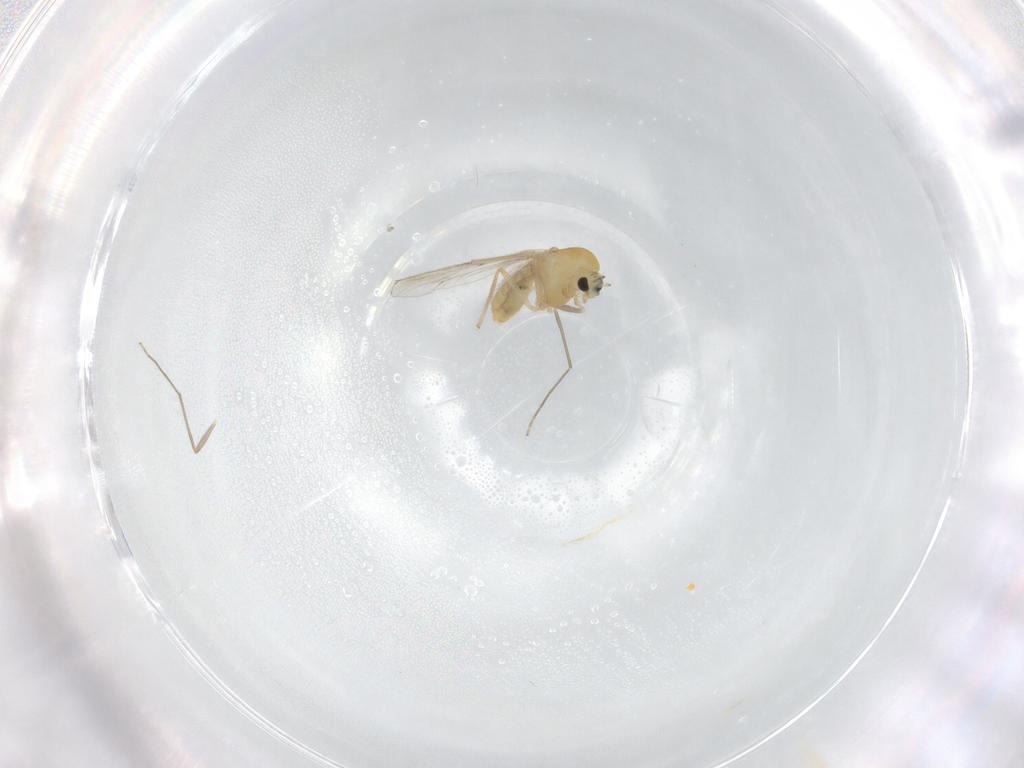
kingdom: Animalia
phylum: Arthropoda
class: Insecta
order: Diptera
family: Chironomidae
